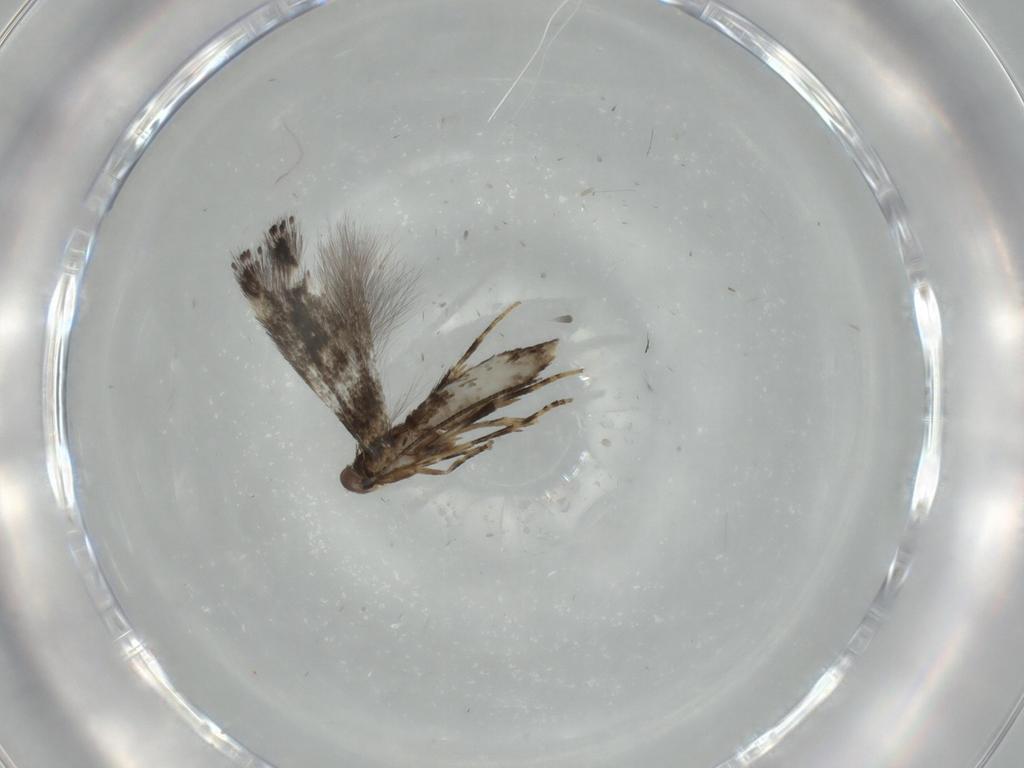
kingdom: Animalia
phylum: Arthropoda
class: Insecta
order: Lepidoptera
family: Elachistidae
